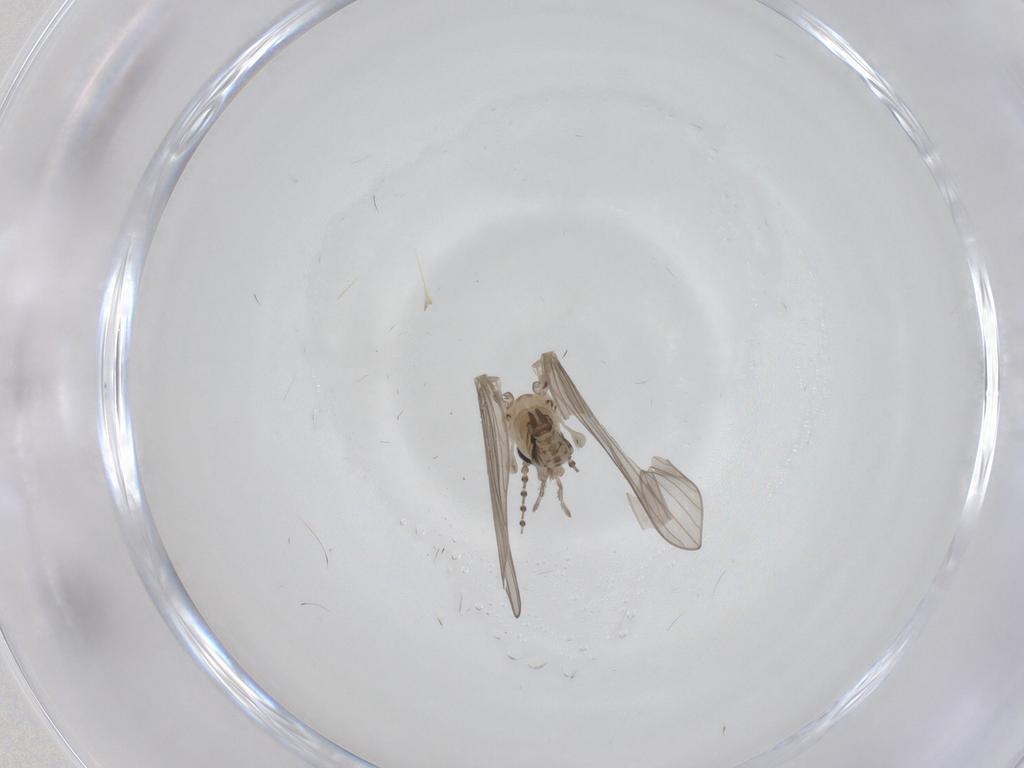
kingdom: Animalia
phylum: Arthropoda
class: Insecta
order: Diptera
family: Psychodidae
